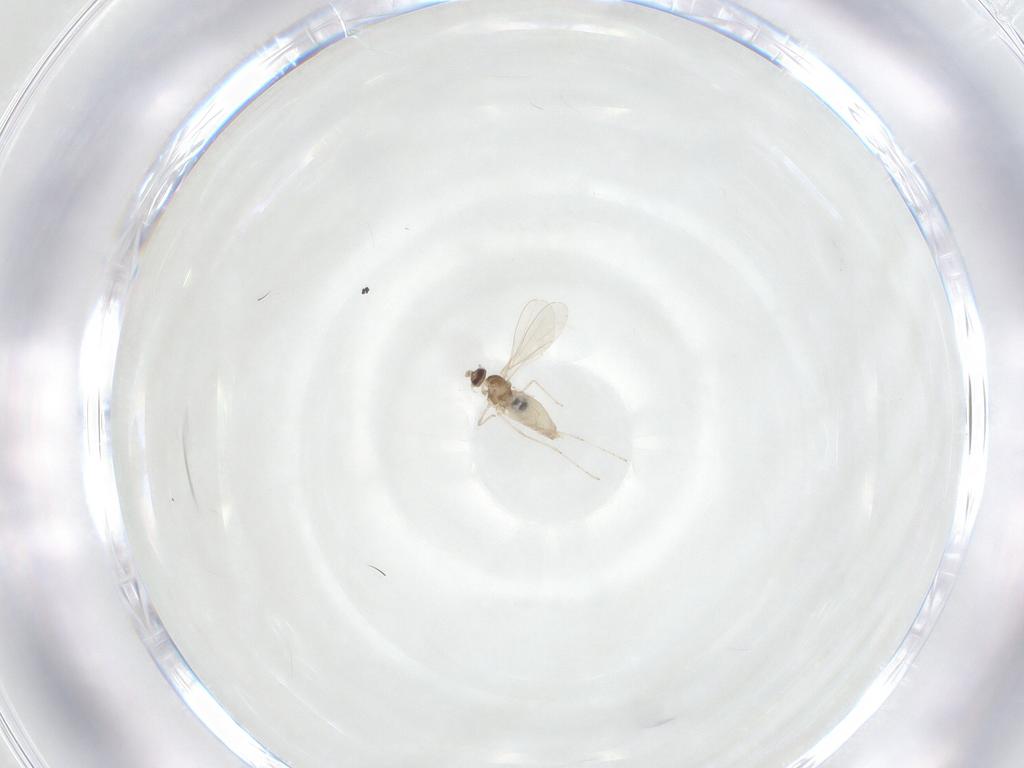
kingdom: Animalia
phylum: Arthropoda
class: Insecta
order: Diptera
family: Cecidomyiidae
